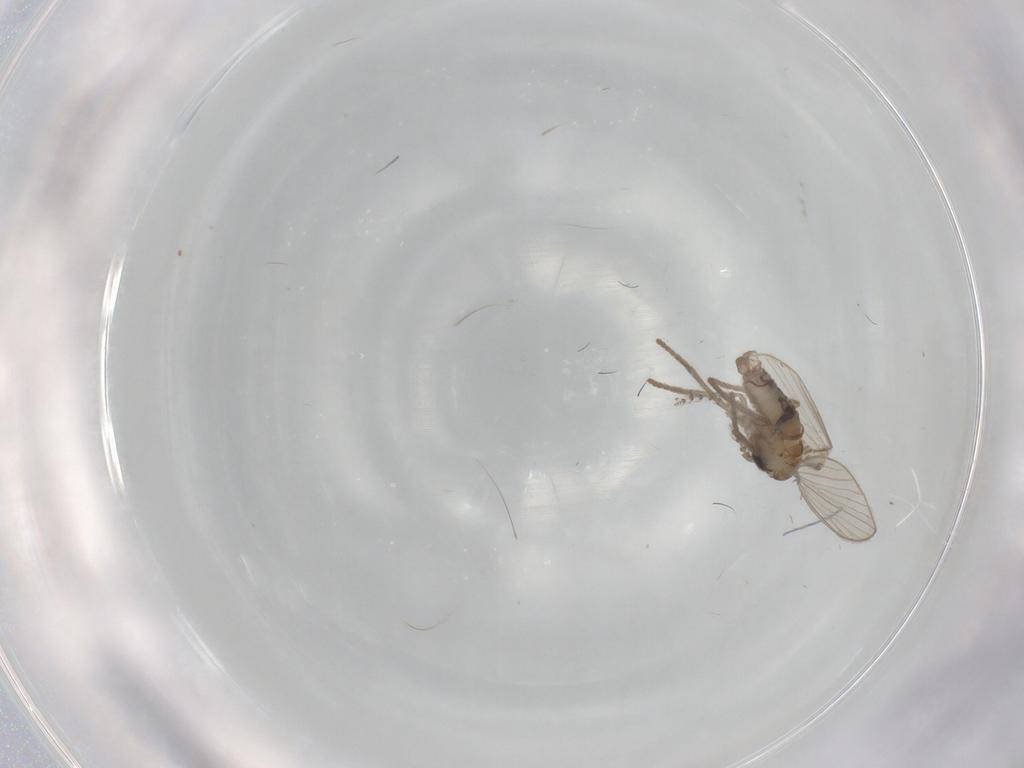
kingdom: Animalia
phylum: Arthropoda
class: Insecta
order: Diptera
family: Psychodidae
